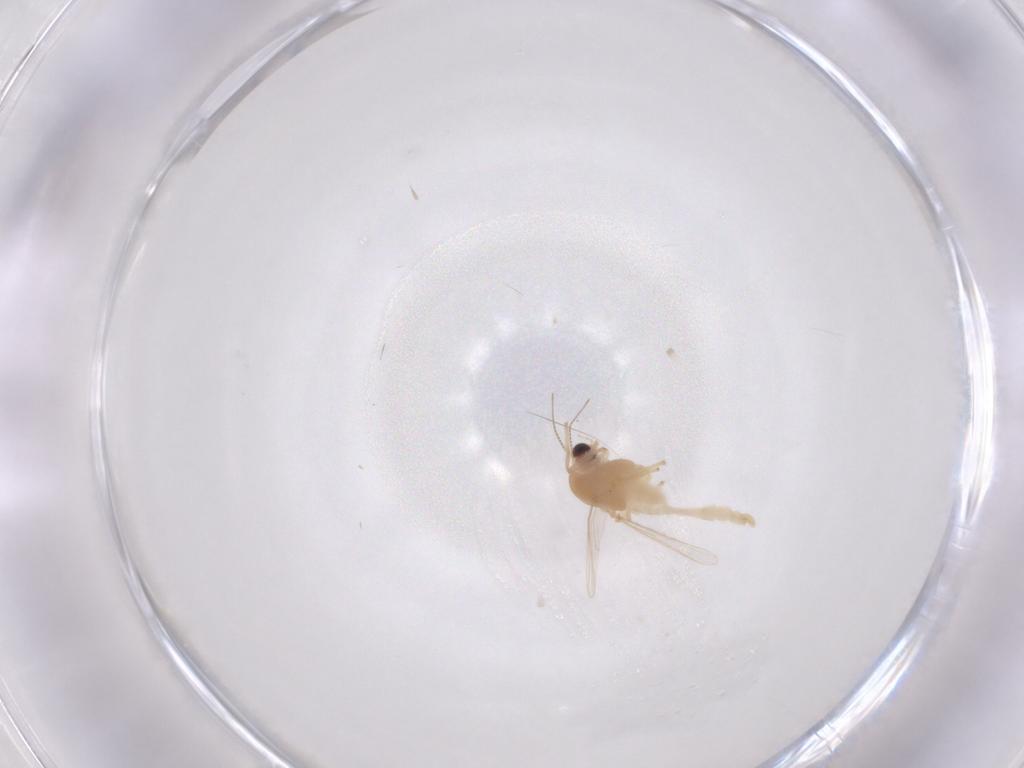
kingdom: Animalia
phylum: Arthropoda
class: Insecta
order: Diptera
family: Chironomidae
